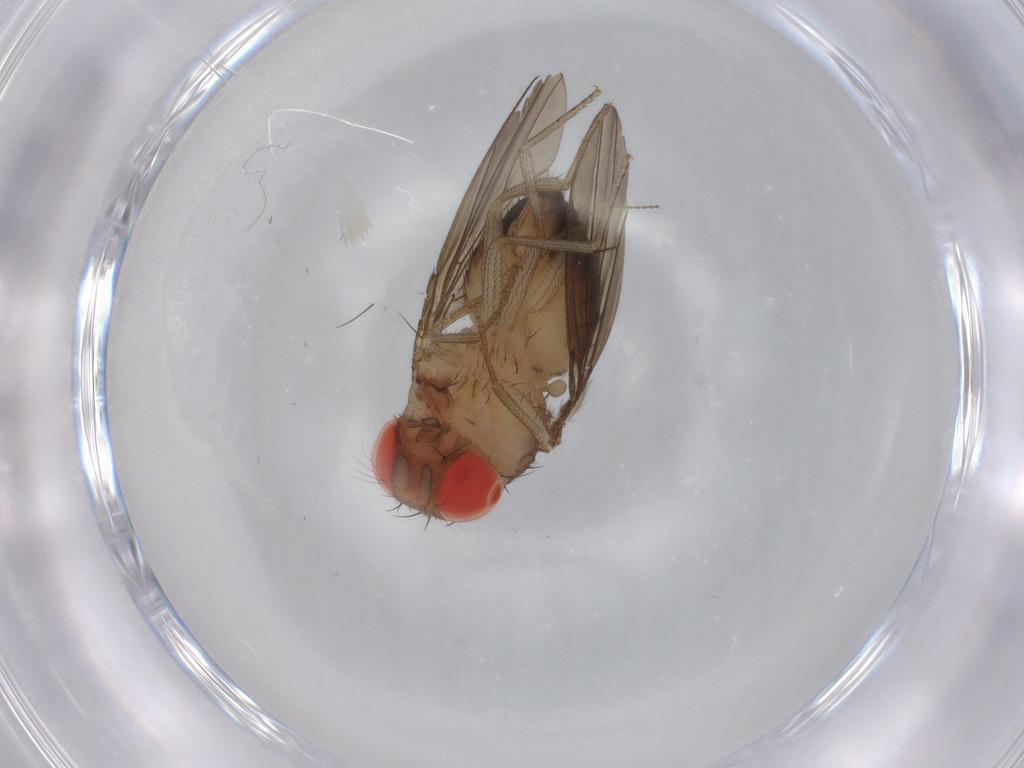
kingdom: Animalia
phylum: Arthropoda
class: Insecta
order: Diptera
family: Drosophilidae
